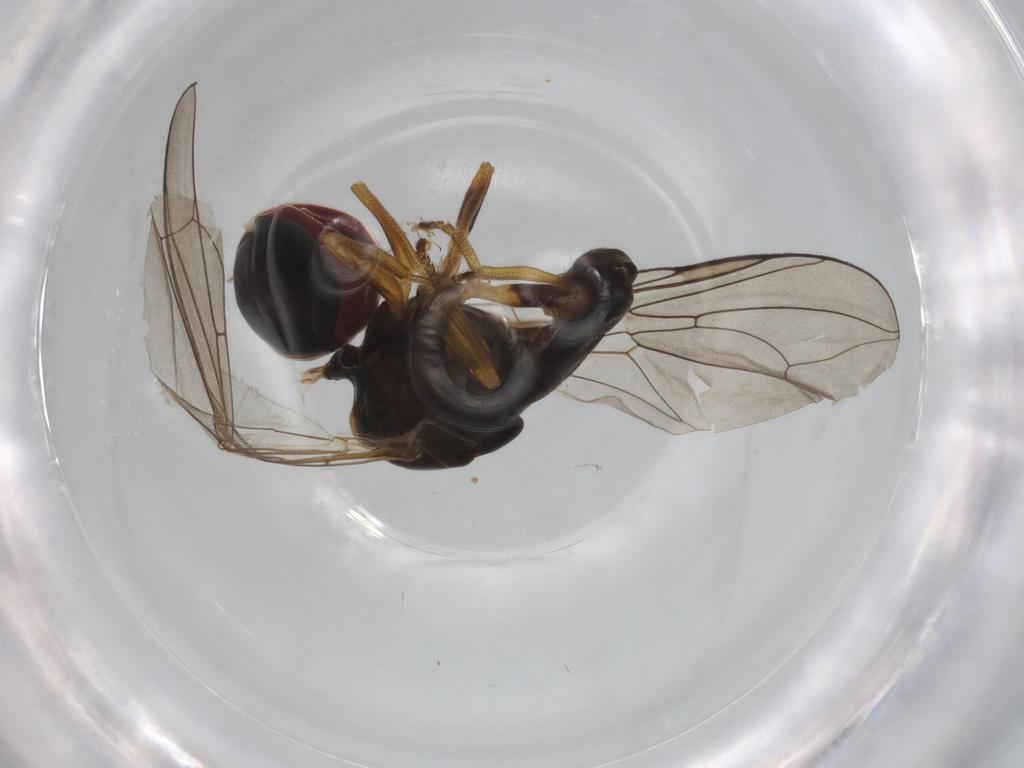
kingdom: Animalia
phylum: Arthropoda
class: Insecta
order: Diptera
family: Pipunculidae
